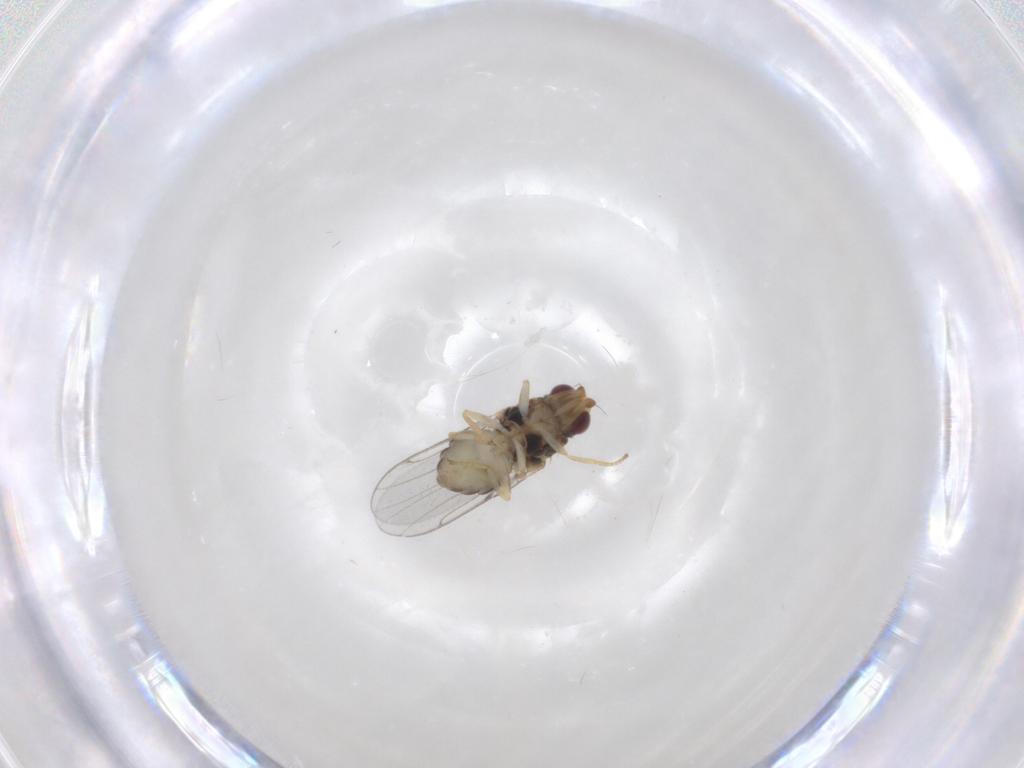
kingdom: Animalia
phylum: Arthropoda
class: Insecta
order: Diptera
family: Chloropidae
